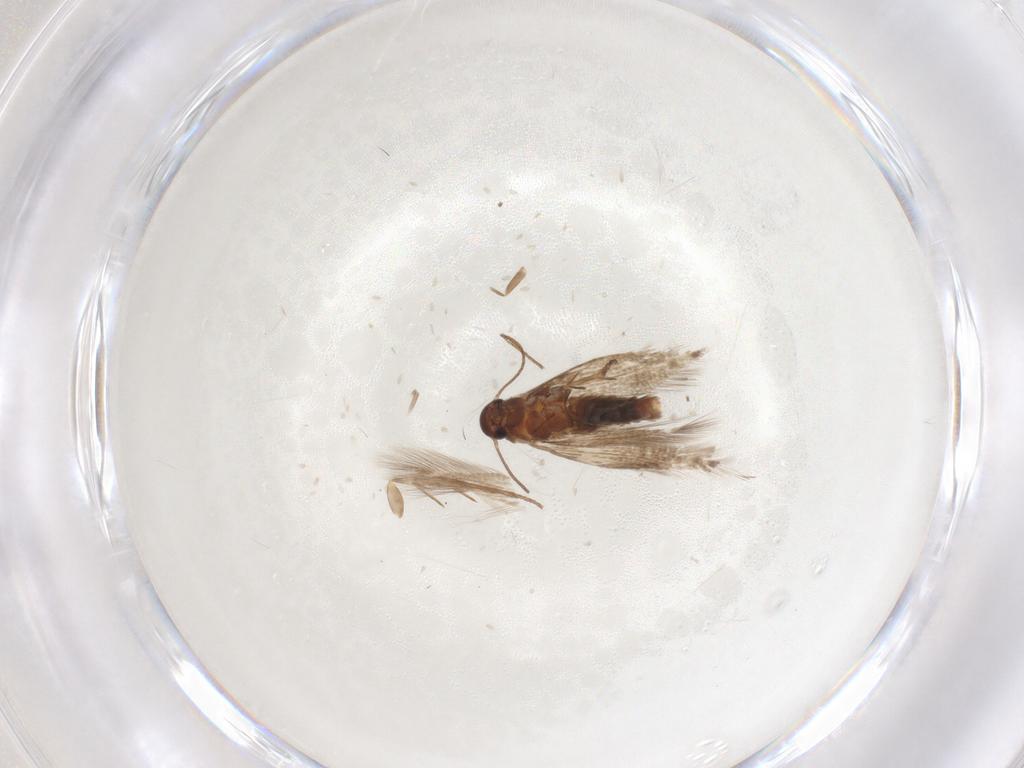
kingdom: Animalia
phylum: Arthropoda
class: Insecta
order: Lepidoptera
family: Heliozelidae
